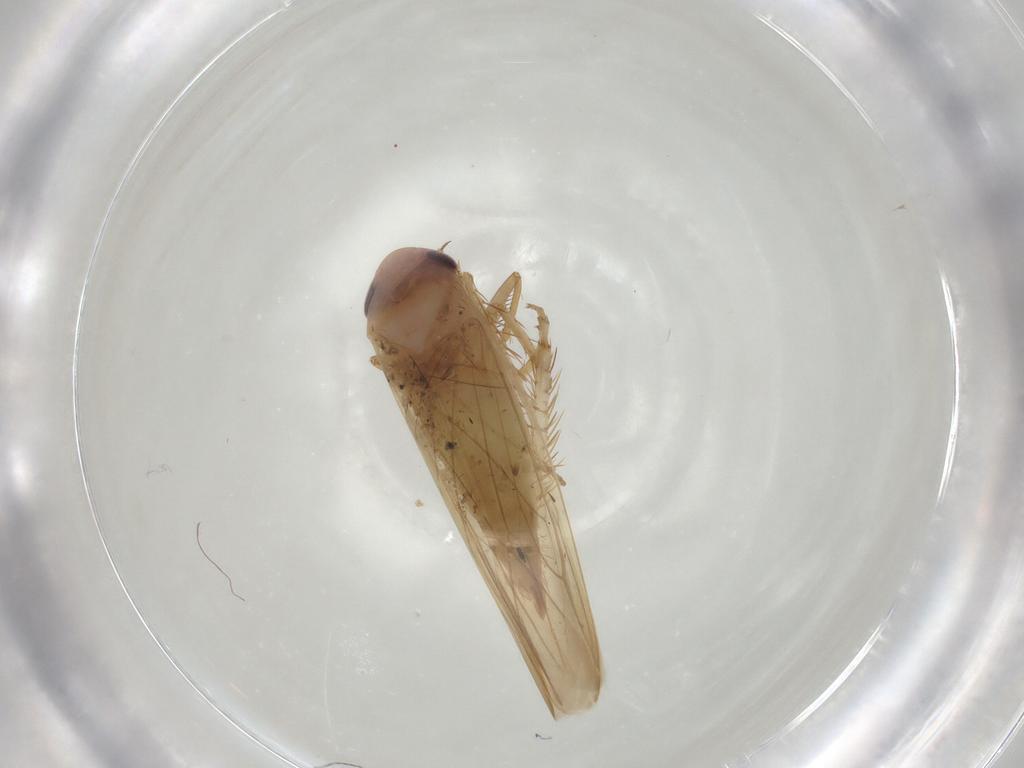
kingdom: Animalia
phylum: Arthropoda
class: Insecta
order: Hemiptera
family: Cicadellidae
